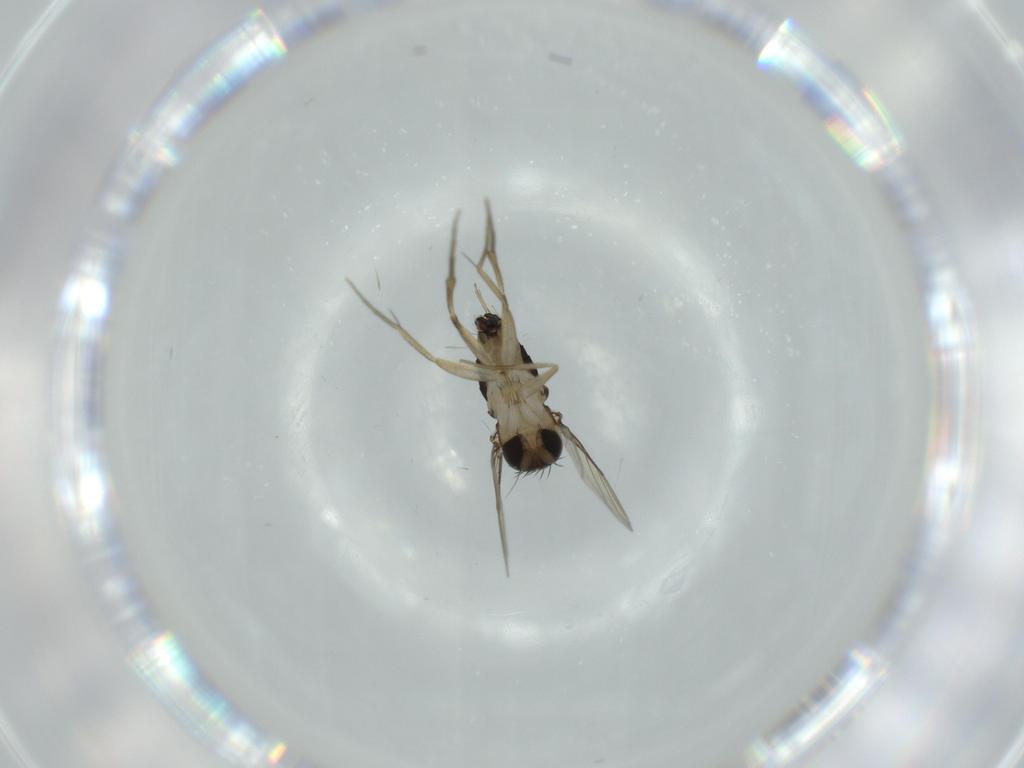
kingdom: Animalia
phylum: Arthropoda
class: Insecta
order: Diptera
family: Phoridae
